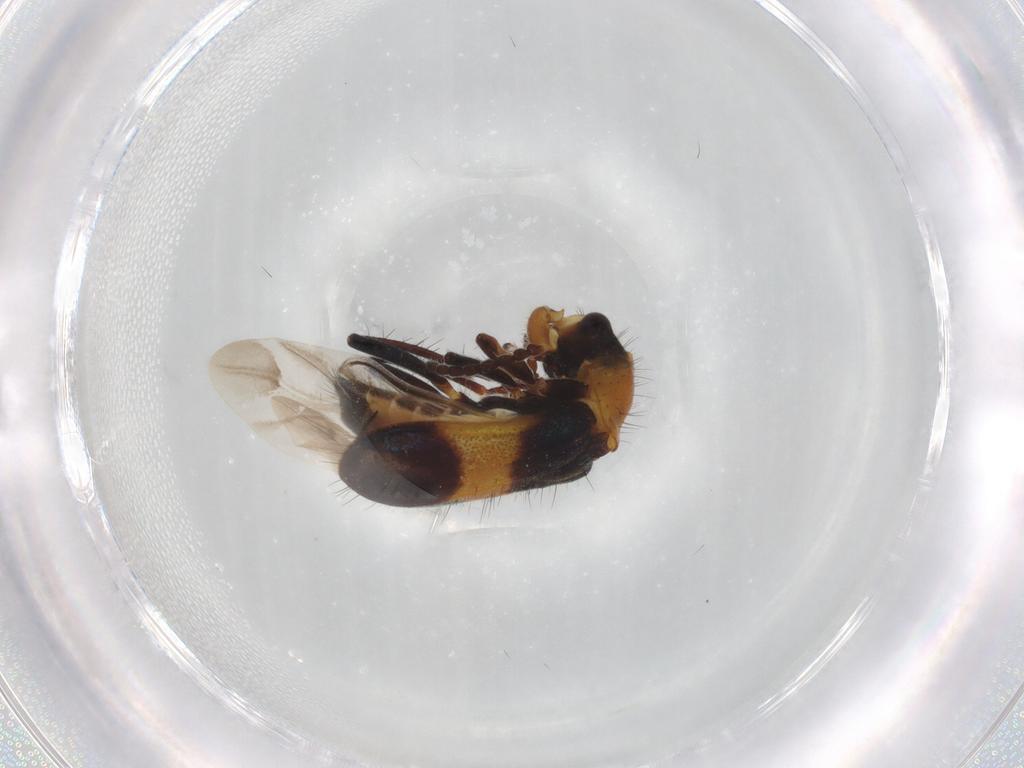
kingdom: Animalia
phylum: Arthropoda
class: Insecta
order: Coleoptera
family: Melyridae
